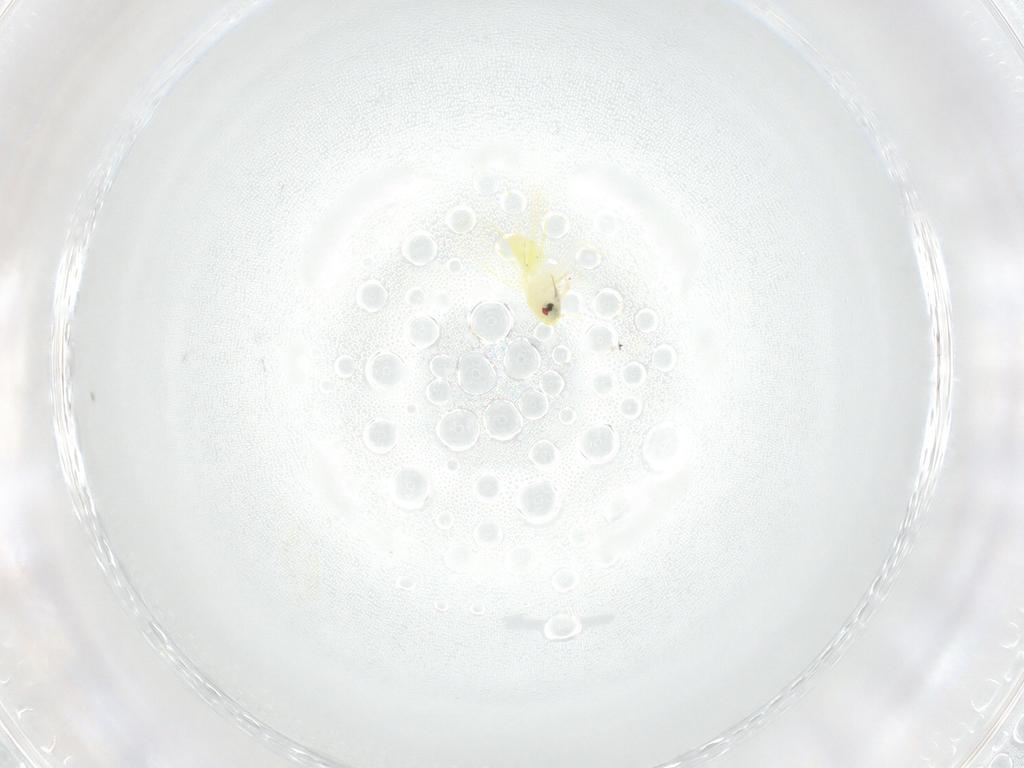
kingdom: Animalia
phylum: Arthropoda
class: Insecta
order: Hemiptera
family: Aleyrodidae
